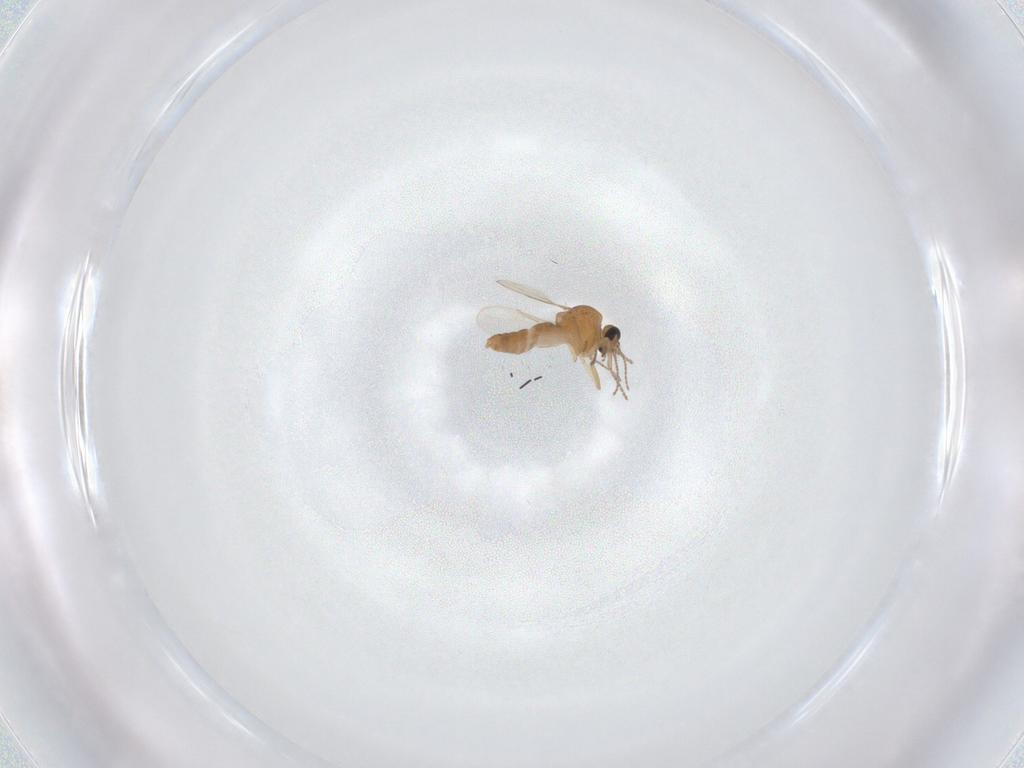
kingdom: Animalia
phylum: Arthropoda
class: Insecta
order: Diptera
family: Ceratopogonidae
